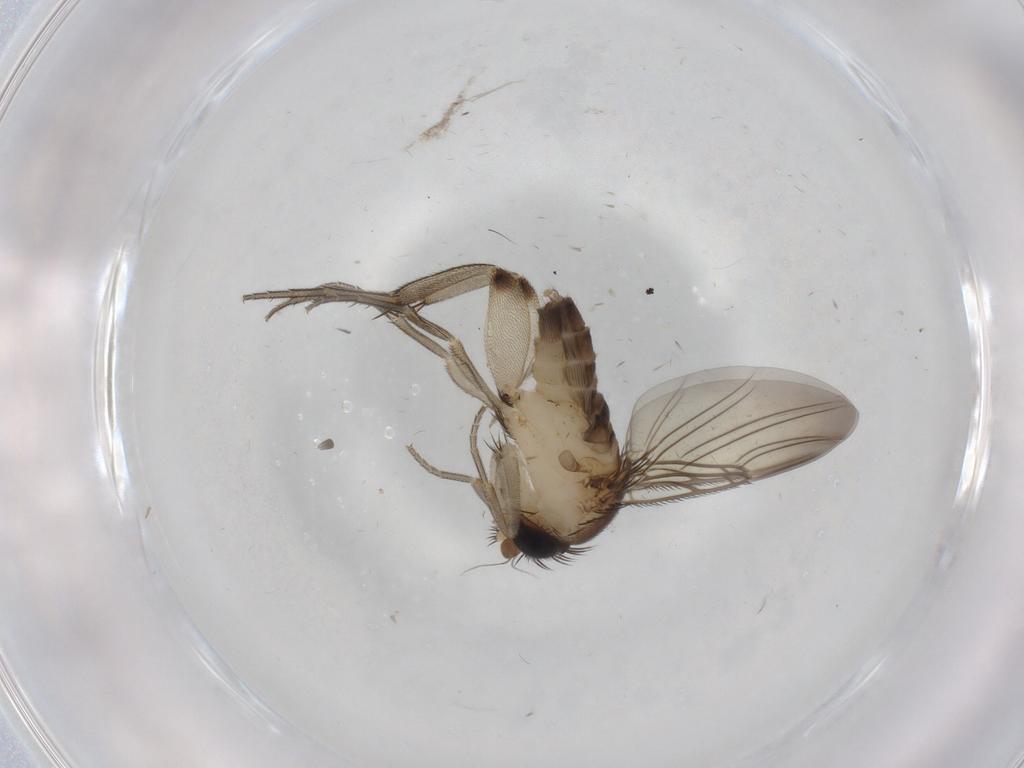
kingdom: Animalia
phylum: Arthropoda
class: Insecta
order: Diptera
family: Phoridae
